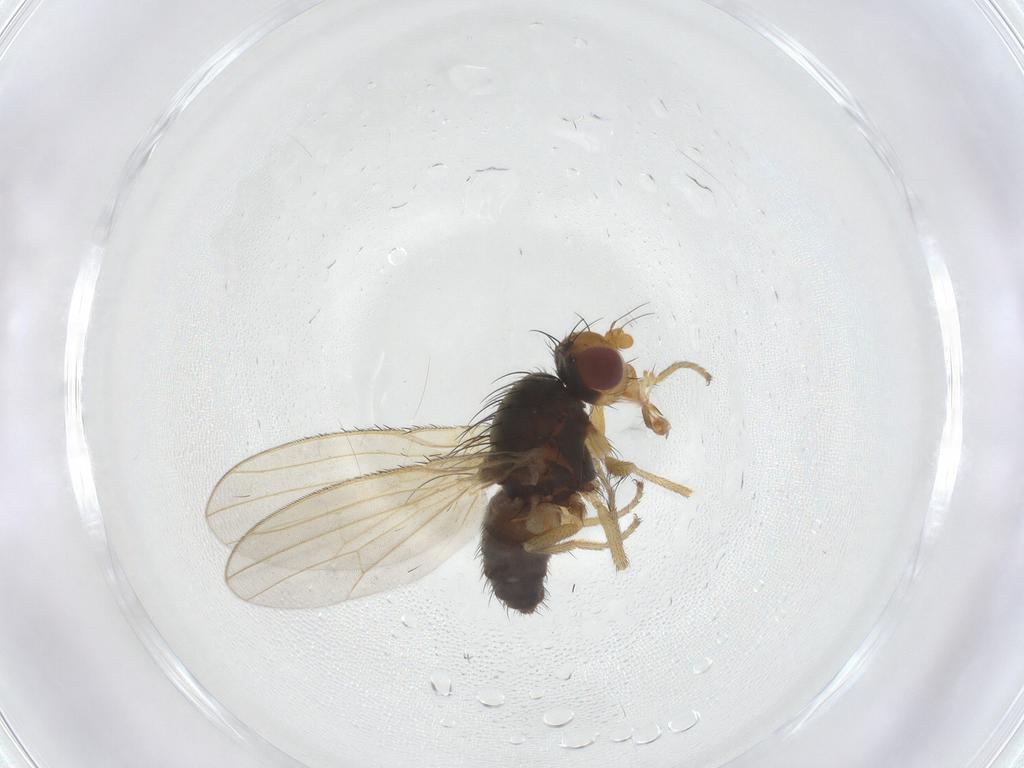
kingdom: Animalia
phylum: Arthropoda
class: Insecta
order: Diptera
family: Heleomyzidae
